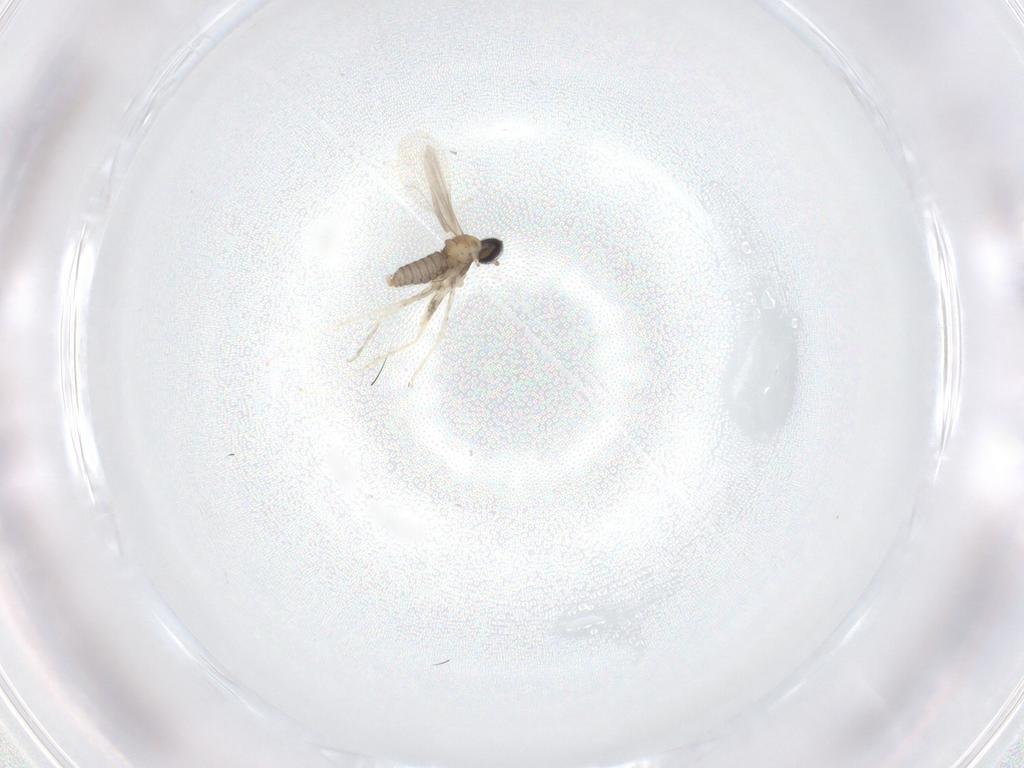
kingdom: Animalia
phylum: Arthropoda
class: Insecta
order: Diptera
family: Cecidomyiidae
